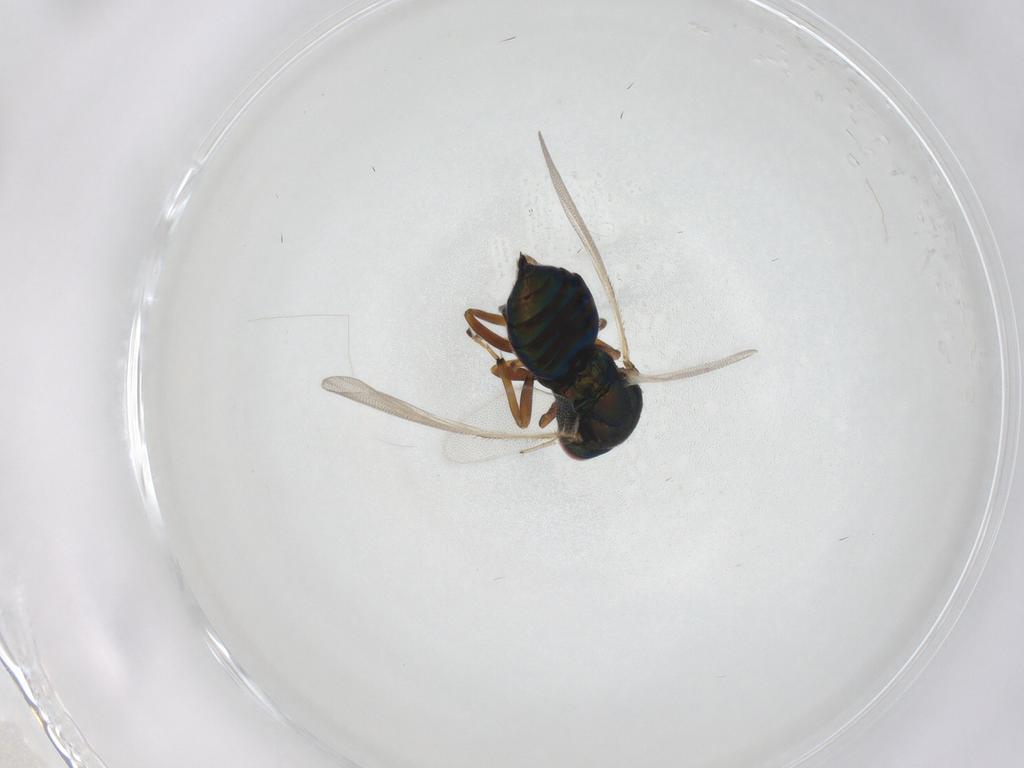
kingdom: Animalia
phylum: Arthropoda
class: Insecta
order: Hymenoptera
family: Pteromalidae
